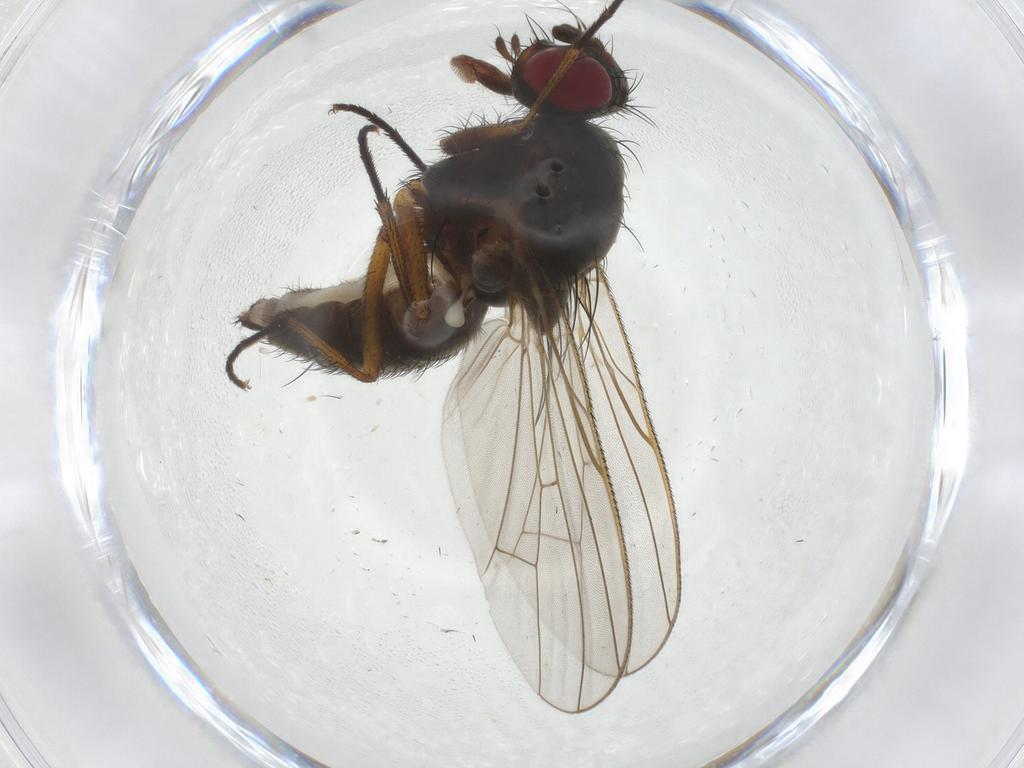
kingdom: Animalia
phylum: Arthropoda
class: Insecta
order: Diptera
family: Anthomyiidae
